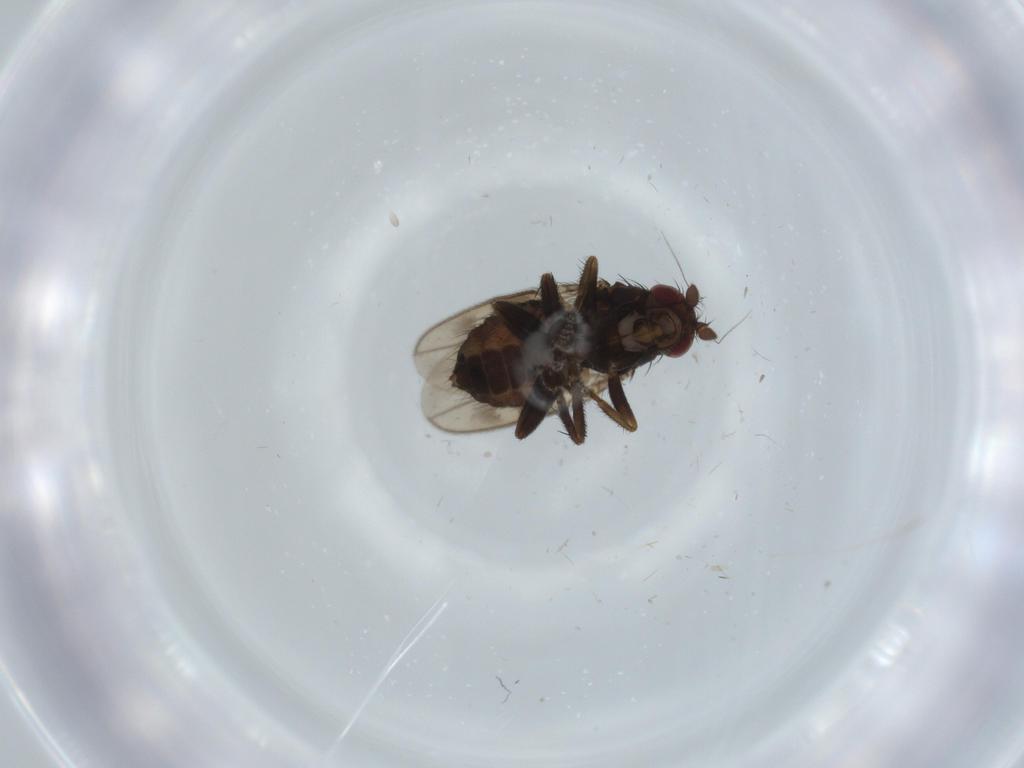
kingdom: Animalia
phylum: Arthropoda
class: Insecta
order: Diptera
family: Sphaeroceridae
